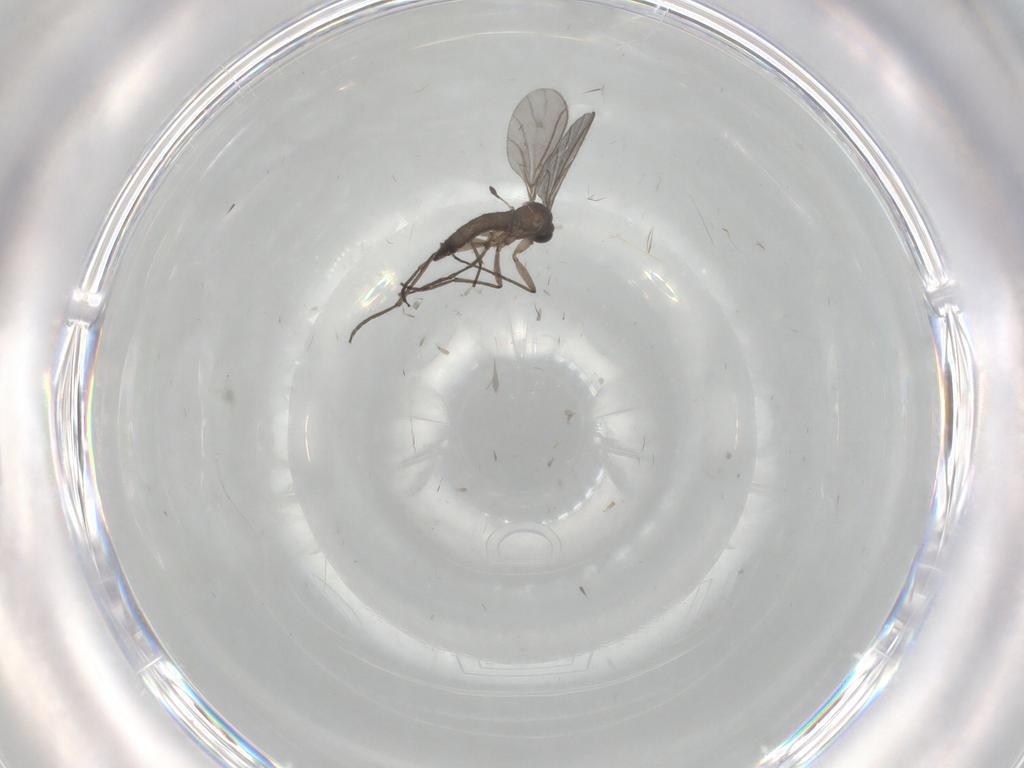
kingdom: Animalia
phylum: Arthropoda
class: Insecta
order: Diptera
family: Sciaridae
